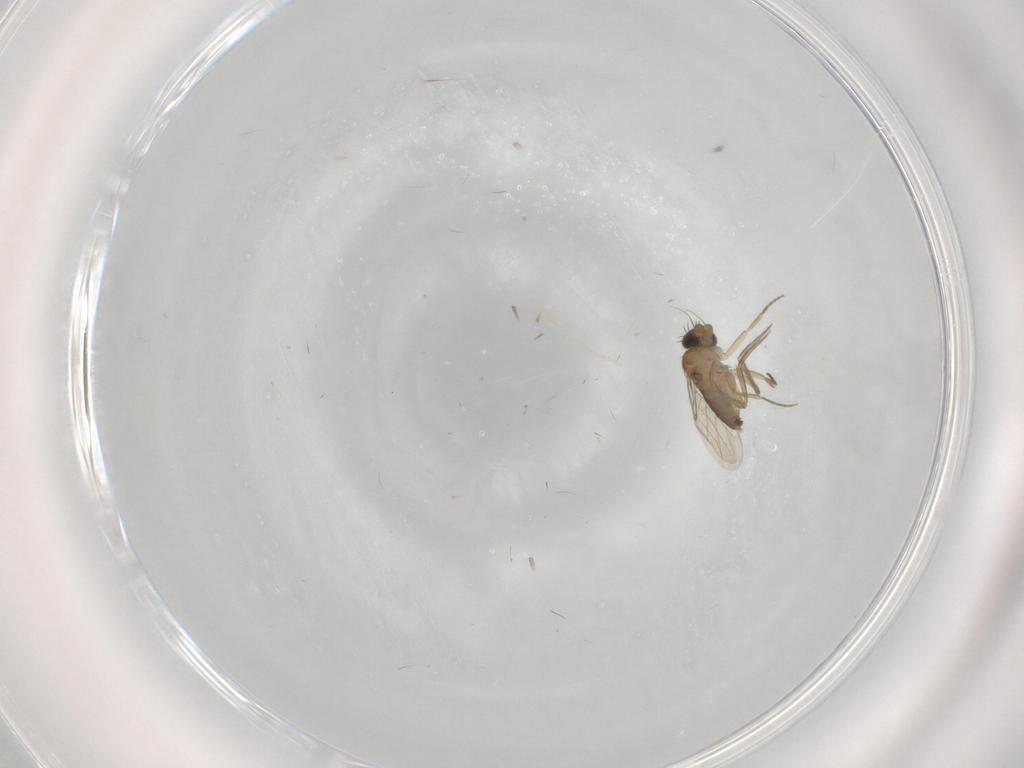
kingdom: Animalia
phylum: Arthropoda
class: Insecta
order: Diptera
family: Phoridae
